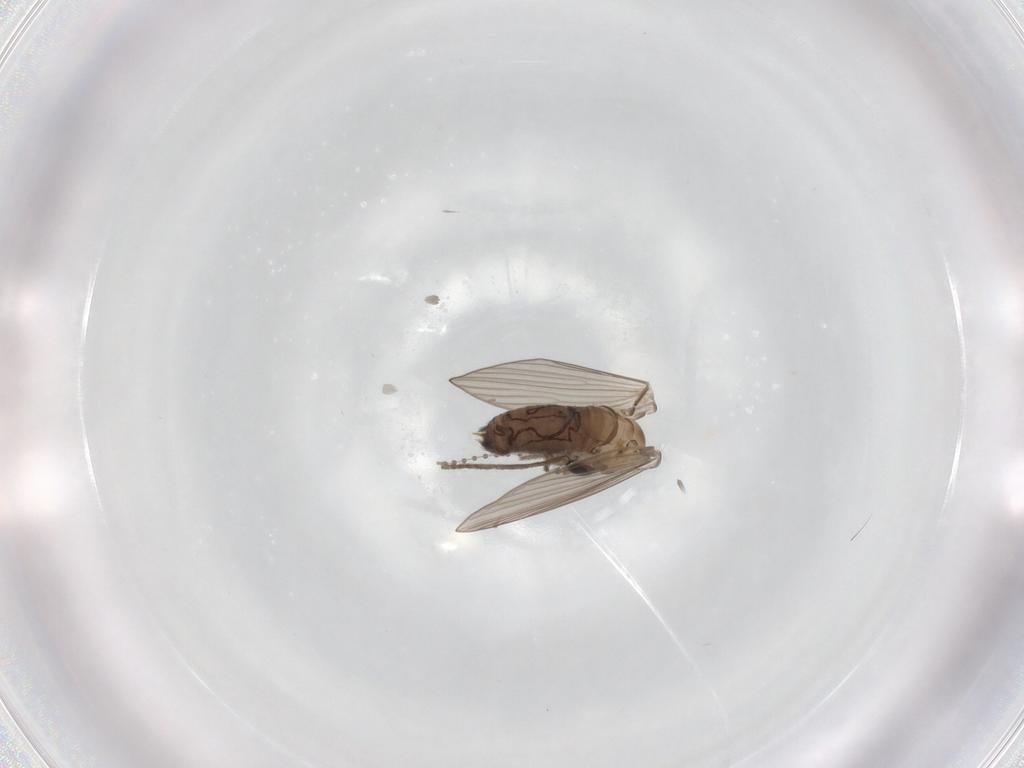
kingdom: Animalia
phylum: Arthropoda
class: Insecta
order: Diptera
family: Psychodidae
